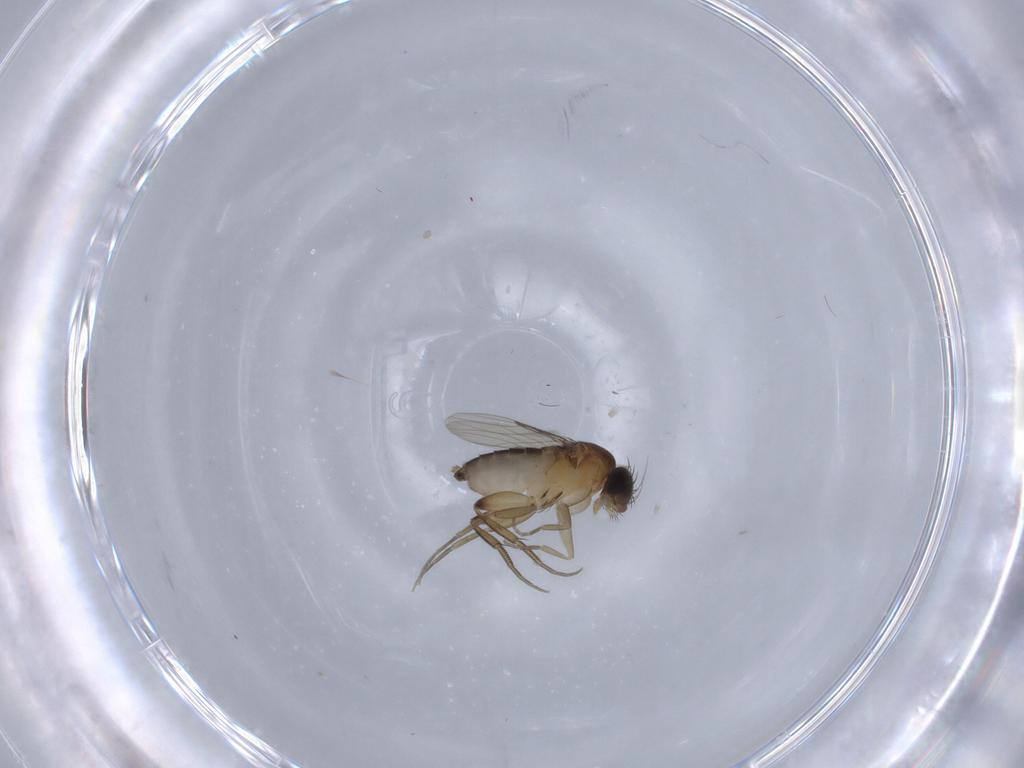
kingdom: Animalia
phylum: Arthropoda
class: Insecta
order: Diptera
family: Phoridae
